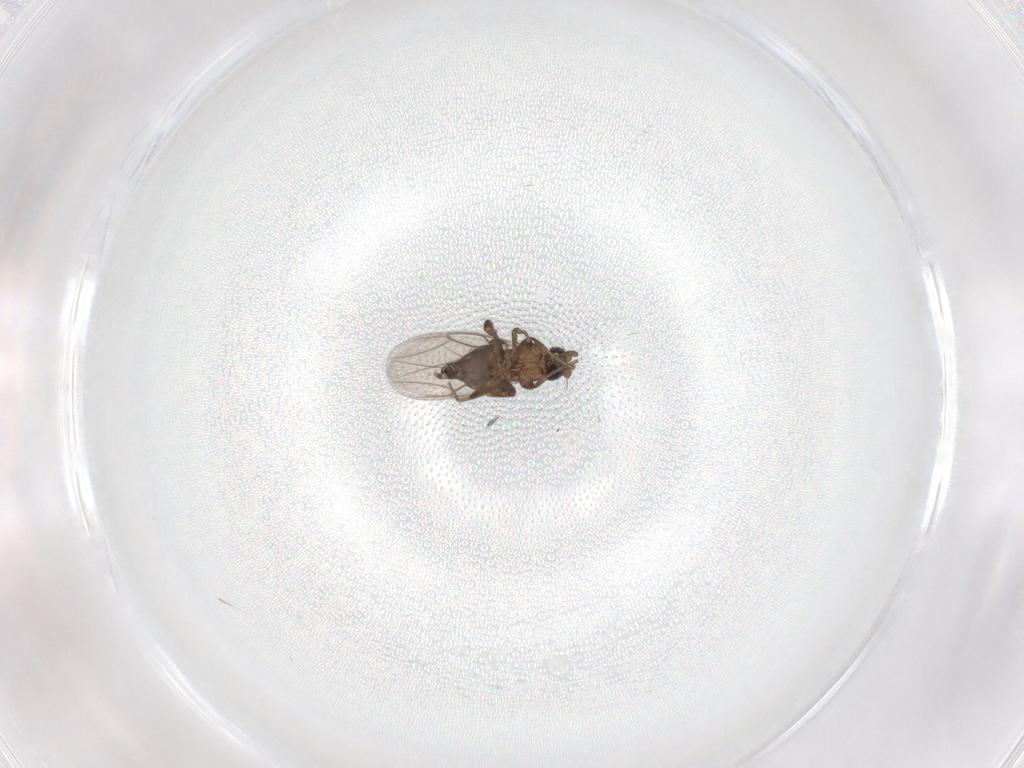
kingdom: Animalia
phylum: Arthropoda
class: Insecta
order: Diptera
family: Phoridae
